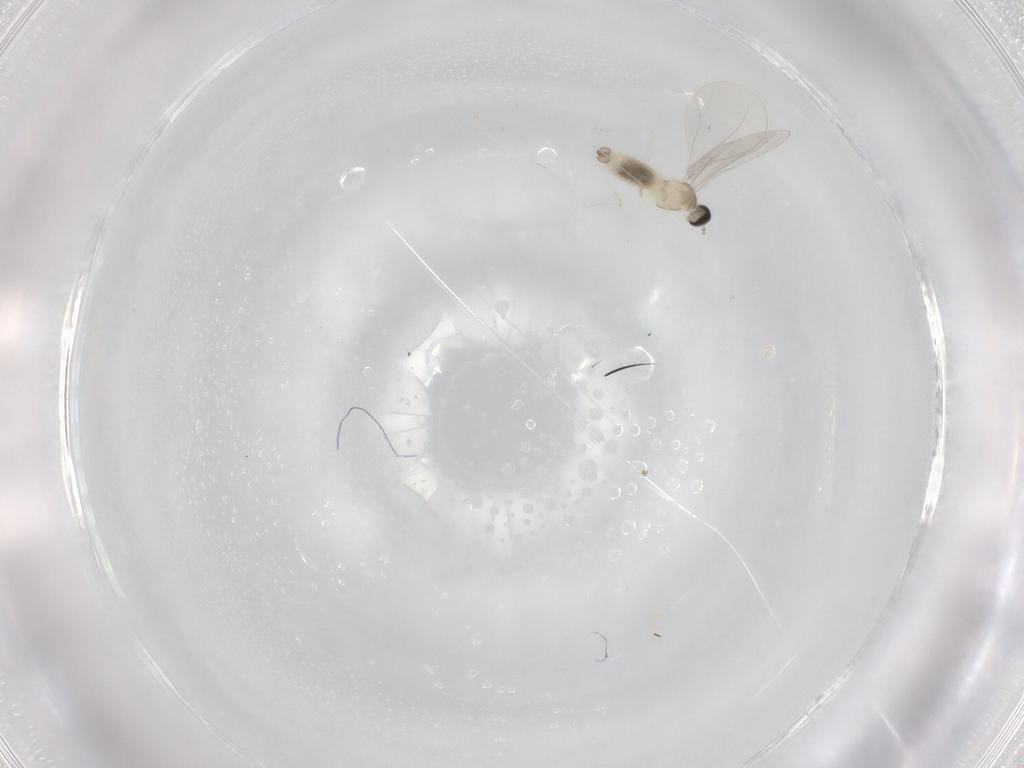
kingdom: Animalia
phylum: Arthropoda
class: Insecta
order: Diptera
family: Cecidomyiidae
